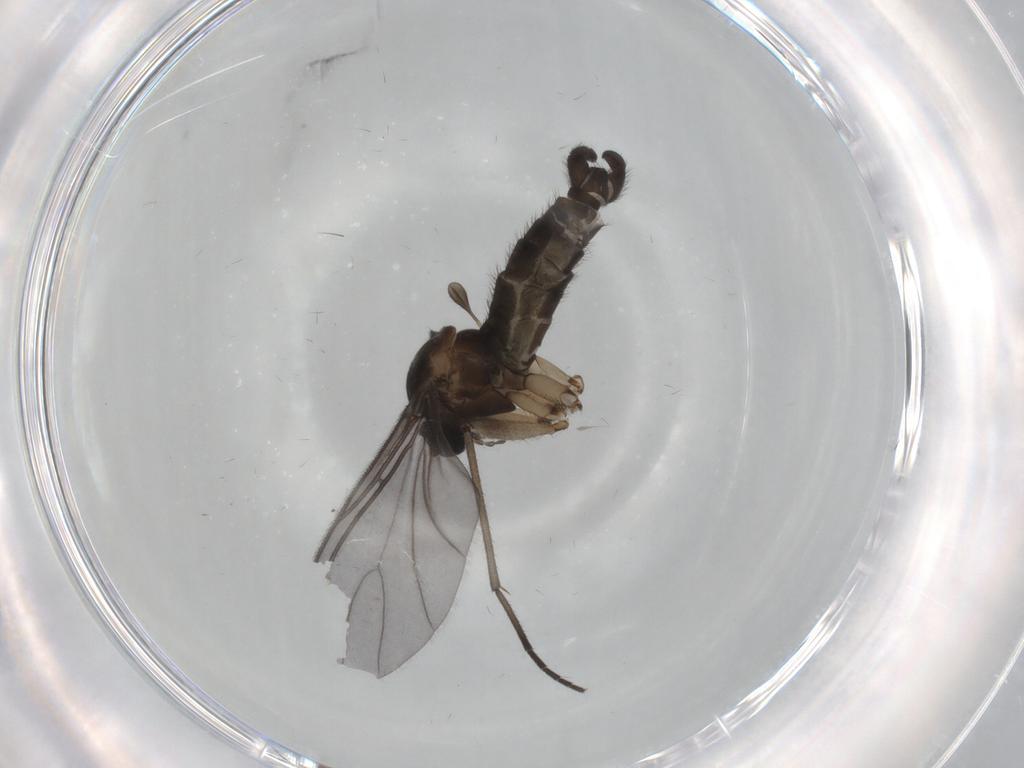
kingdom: Animalia
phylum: Arthropoda
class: Insecta
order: Diptera
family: Sciaridae
